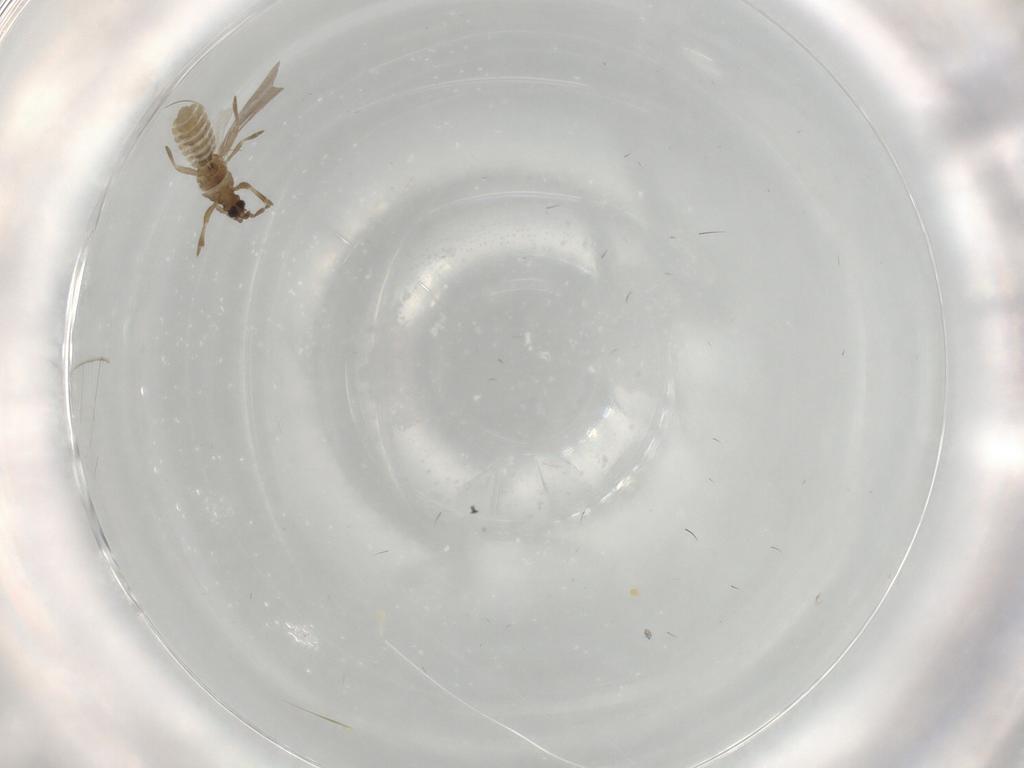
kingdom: Animalia
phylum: Arthropoda
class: Insecta
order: Hemiptera
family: Enicocephalidae
